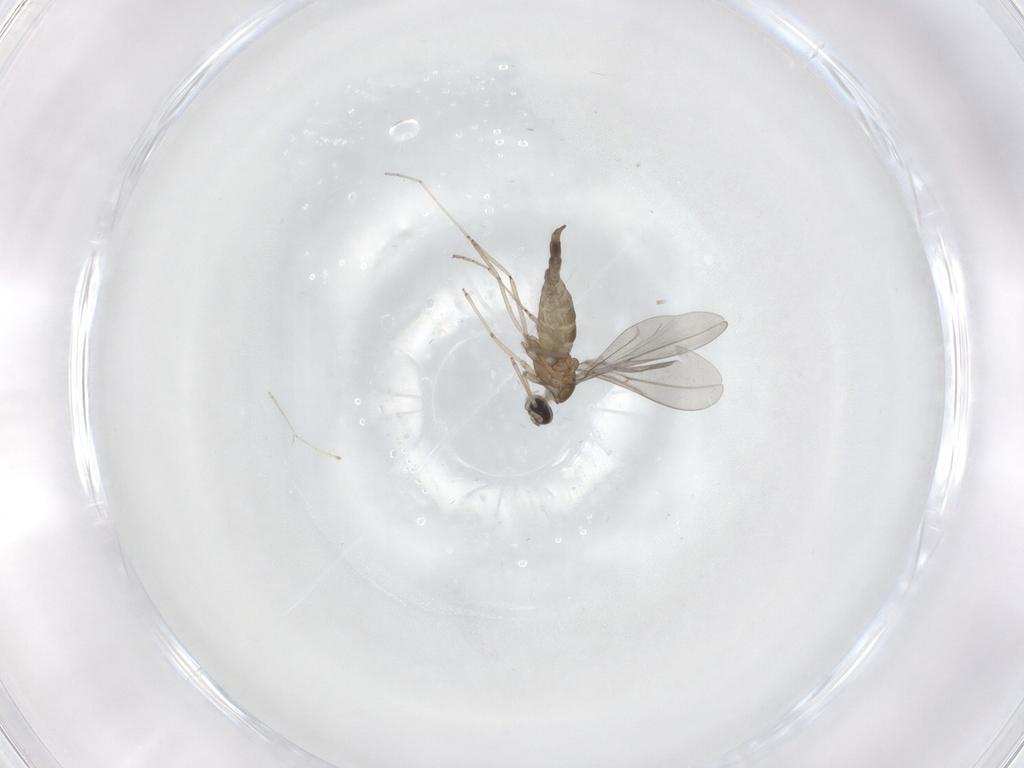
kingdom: Animalia
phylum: Arthropoda
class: Insecta
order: Diptera
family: Cecidomyiidae
